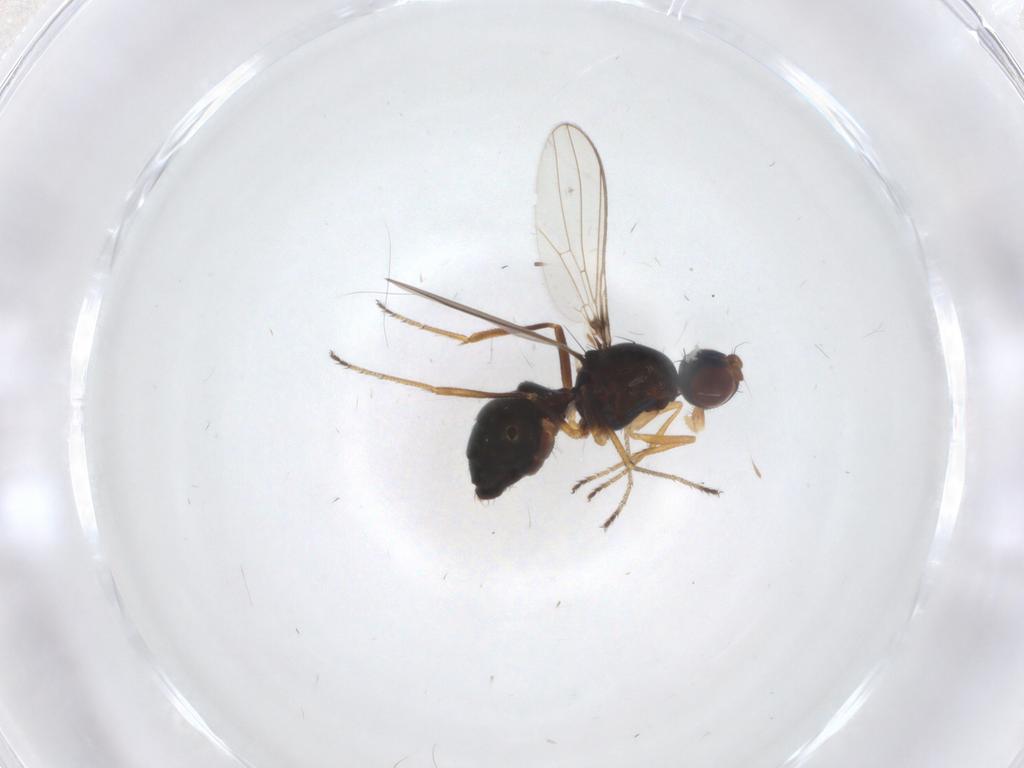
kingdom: Animalia
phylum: Arthropoda
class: Insecta
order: Diptera
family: Sepsidae
